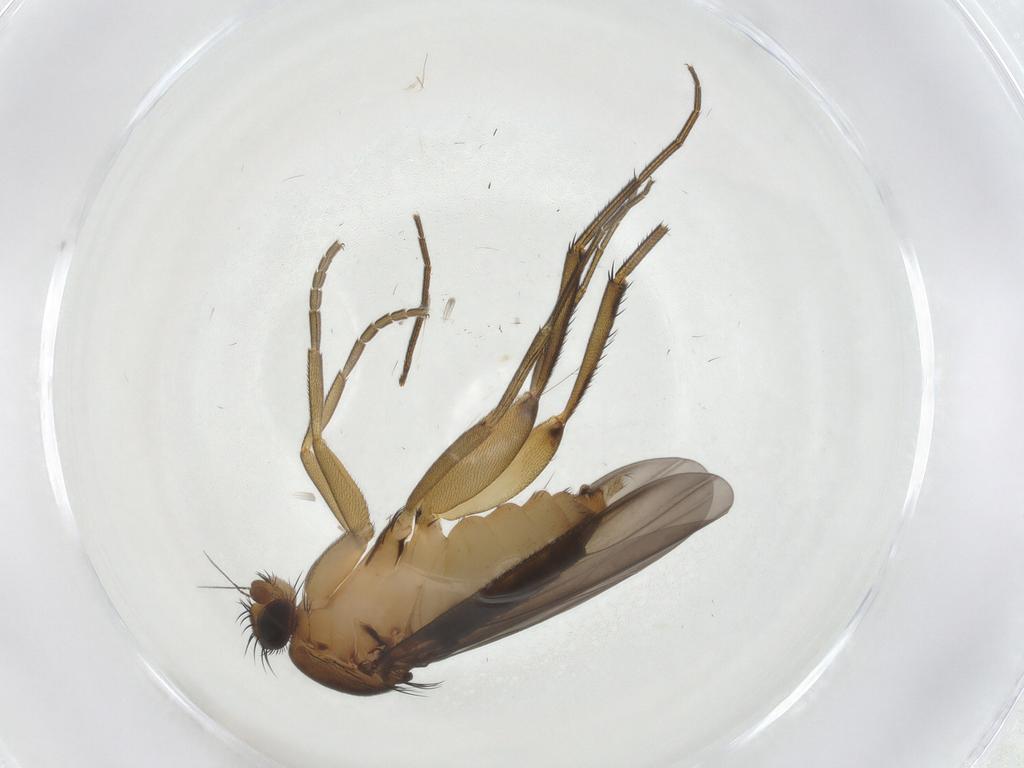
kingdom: Animalia
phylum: Arthropoda
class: Insecta
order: Diptera
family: Phoridae
